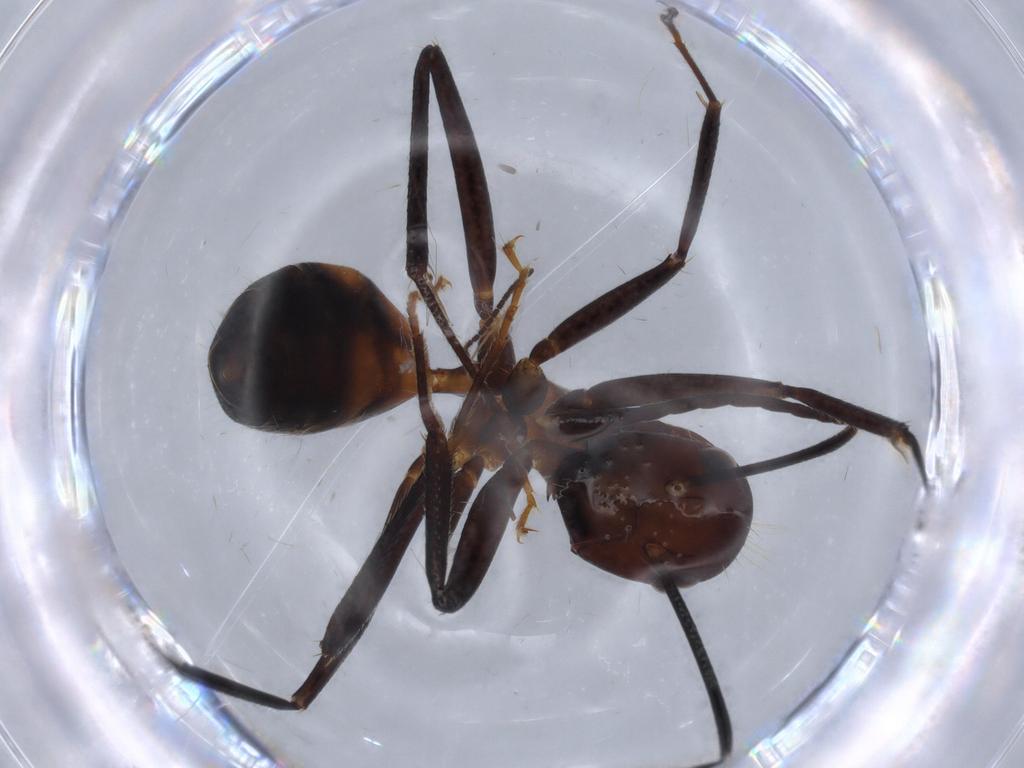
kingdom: Animalia
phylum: Arthropoda
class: Insecta
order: Hymenoptera
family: Formicidae
